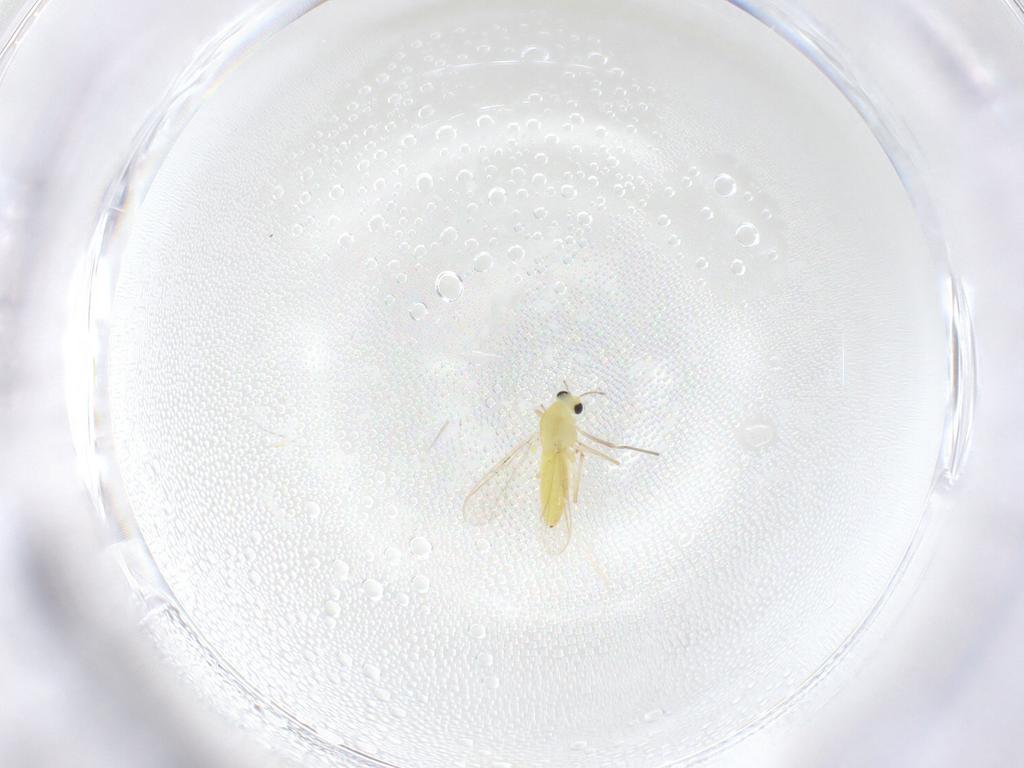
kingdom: Animalia
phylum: Arthropoda
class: Insecta
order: Diptera
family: Chironomidae
